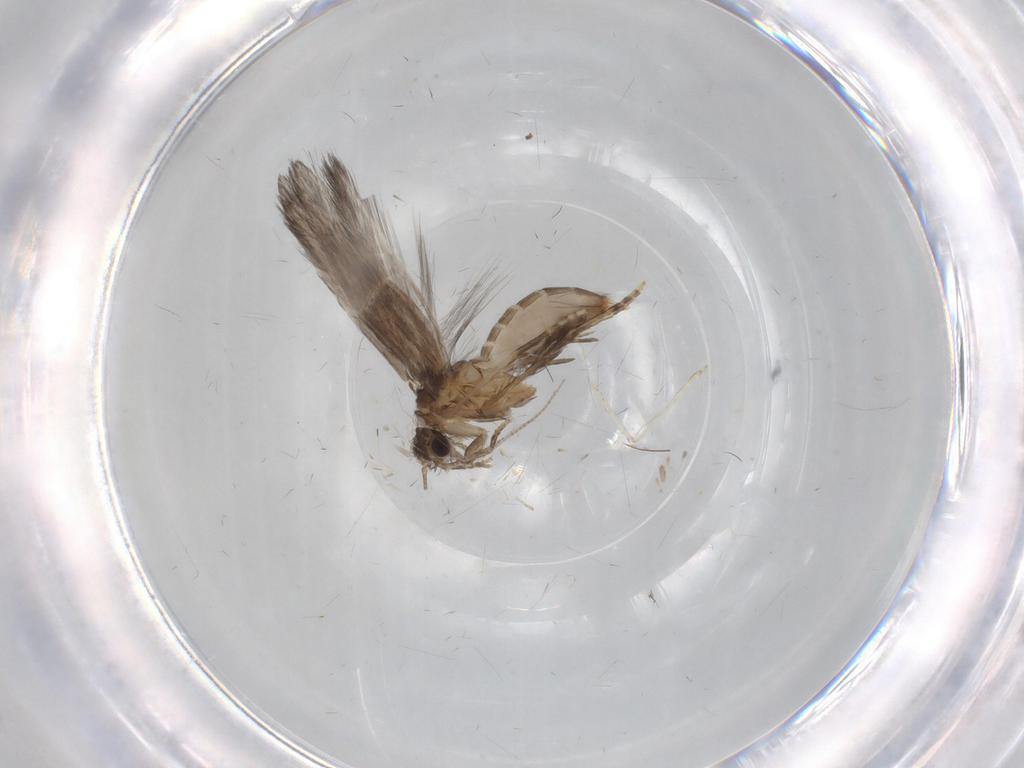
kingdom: Animalia
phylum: Arthropoda
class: Insecta
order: Trichoptera
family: Hydroptilidae
